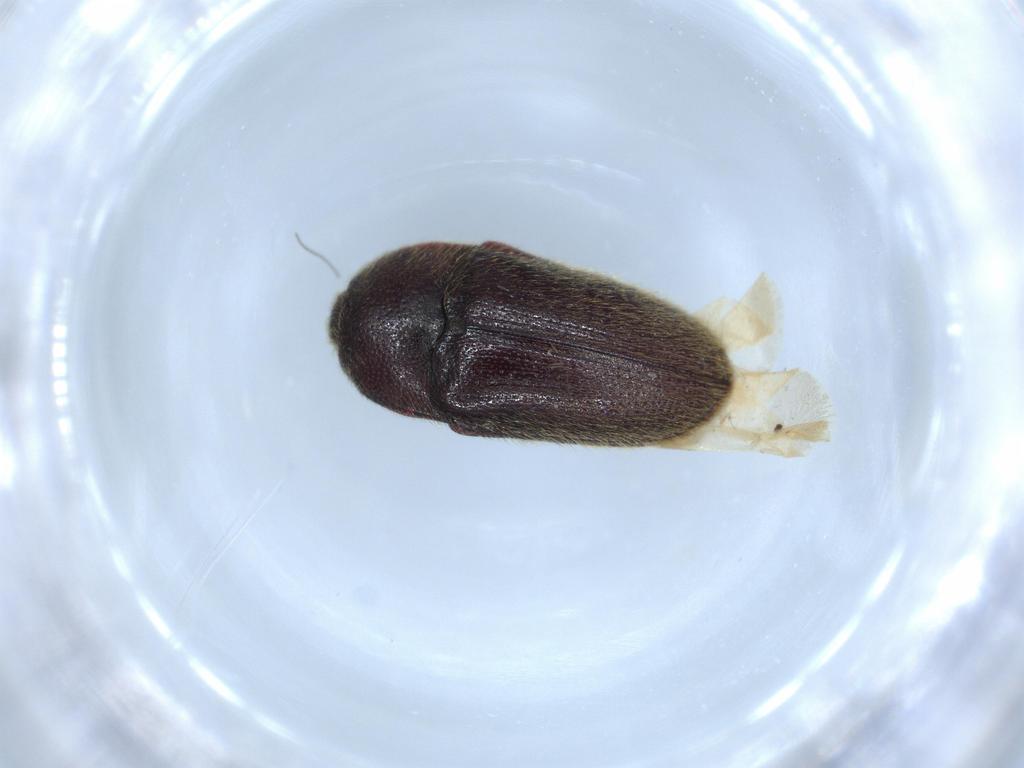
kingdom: Animalia
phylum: Arthropoda
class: Insecta
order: Coleoptera
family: Throscidae
